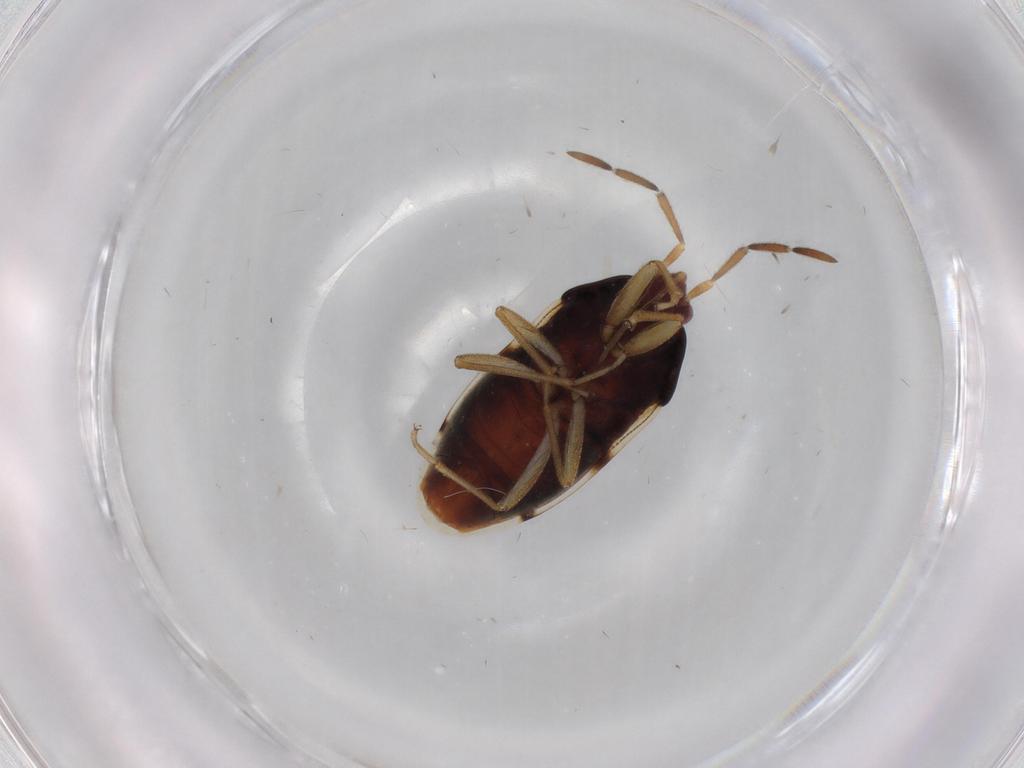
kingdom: Animalia
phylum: Arthropoda
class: Insecta
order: Hemiptera
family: Rhyparochromidae
